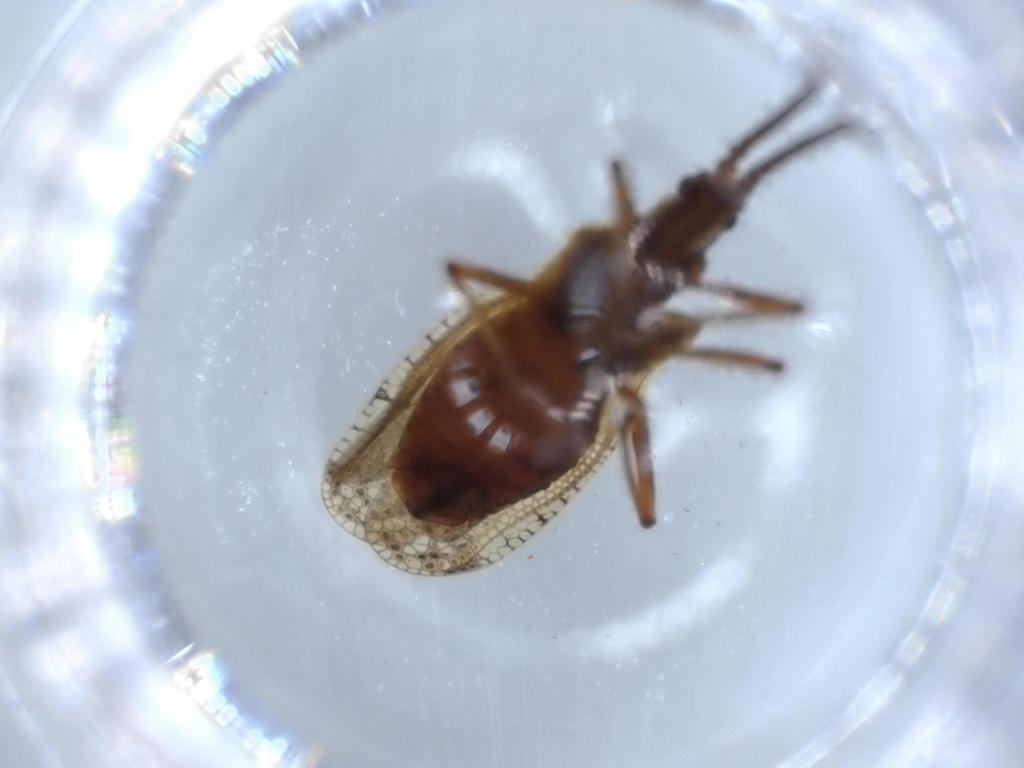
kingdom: Animalia
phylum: Arthropoda
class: Insecta
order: Hemiptera
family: Tingidae
